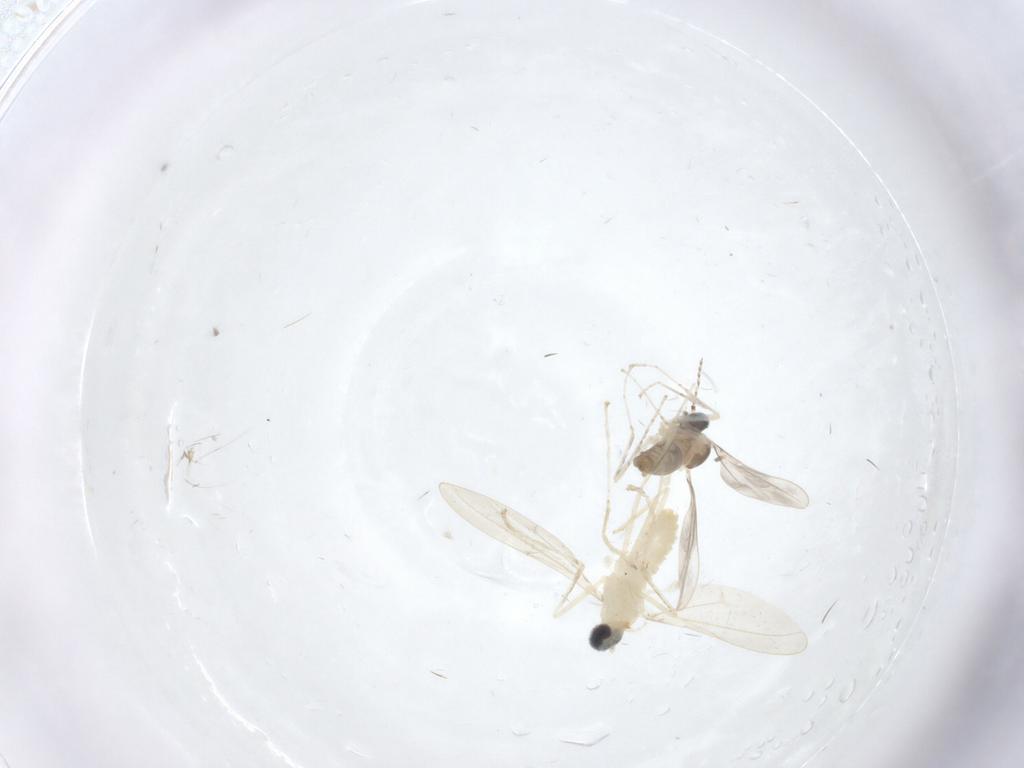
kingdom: Animalia
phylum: Arthropoda
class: Insecta
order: Diptera
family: Cecidomyiidae
